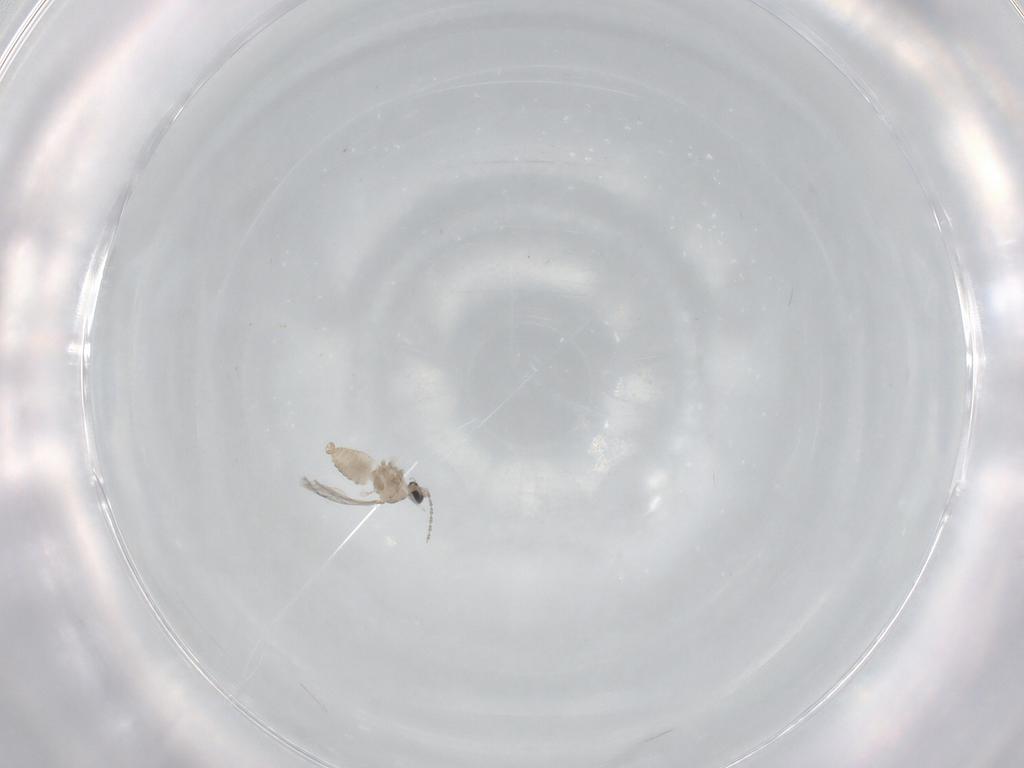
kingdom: Animalia
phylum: Arthropoda
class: Insecta
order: Diptera
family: Cecidomyiidae
